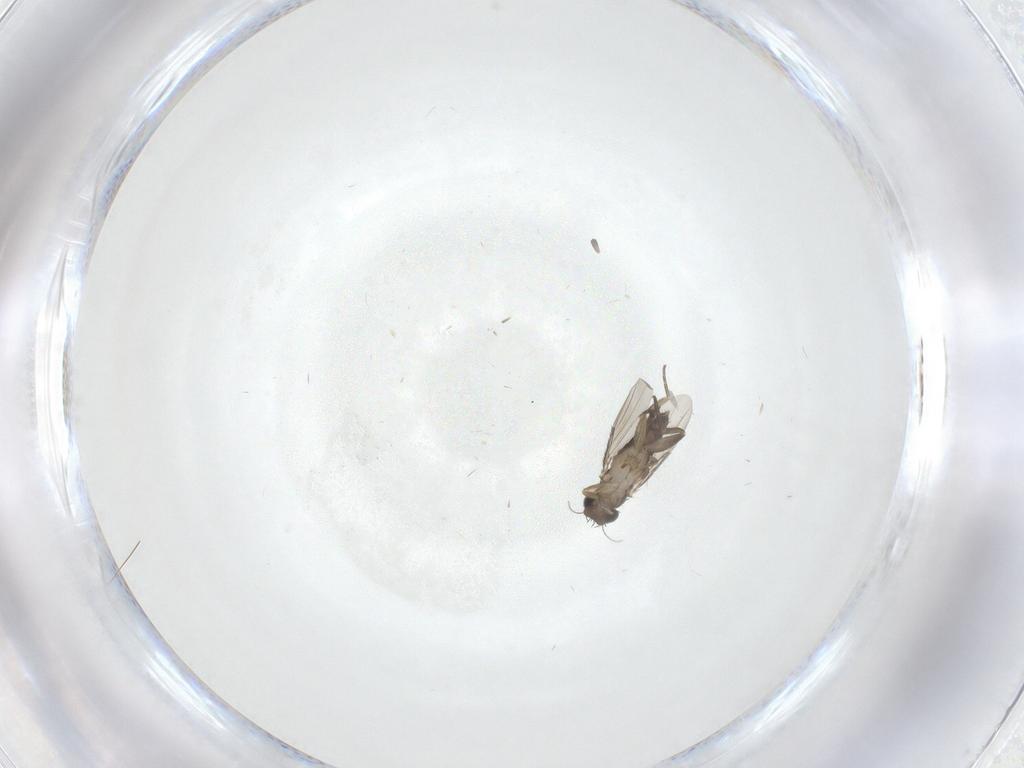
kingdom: Animalia
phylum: Arthropoda
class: Insecta
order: Diptera
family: Phoridae
